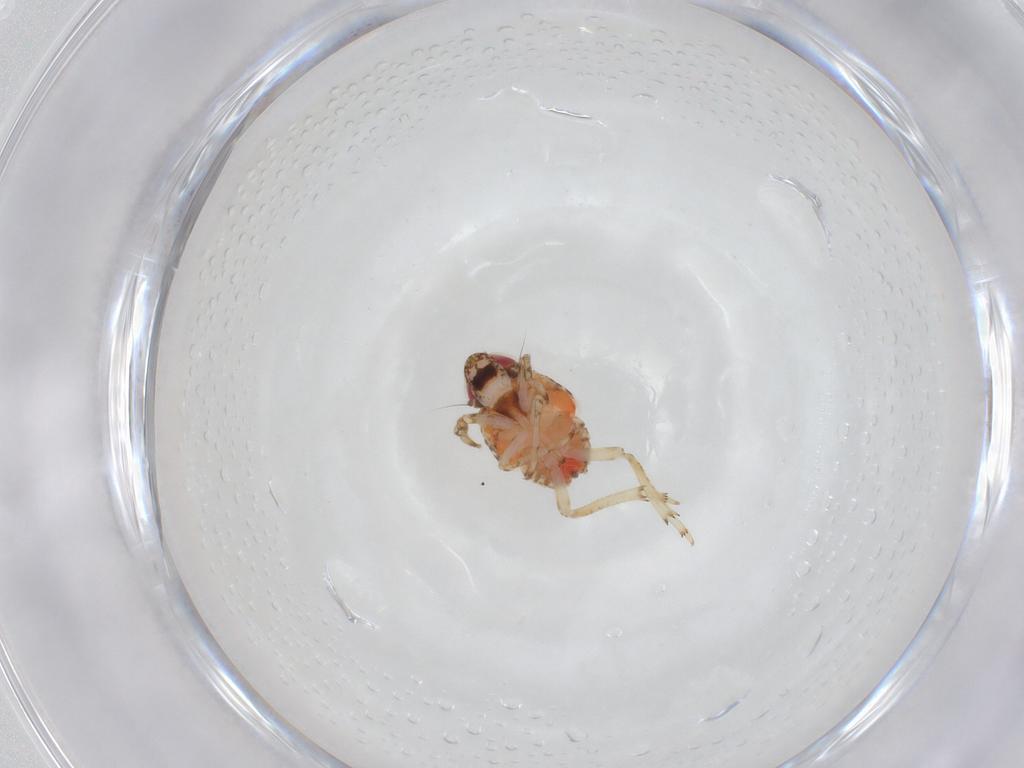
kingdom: Animalia
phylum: Arthropoda
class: Insecta
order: Hemiptera
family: Issidae
